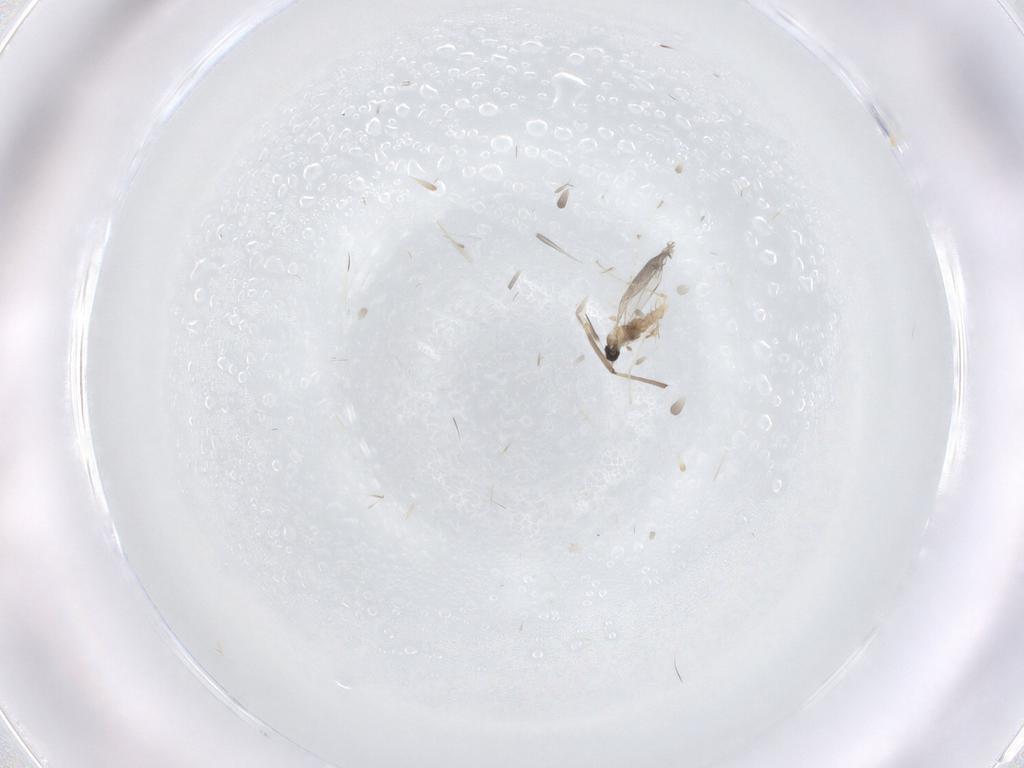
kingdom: Animalia
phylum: Arthropoda
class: Insecta
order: Diptera
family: Cecidomyiidae
